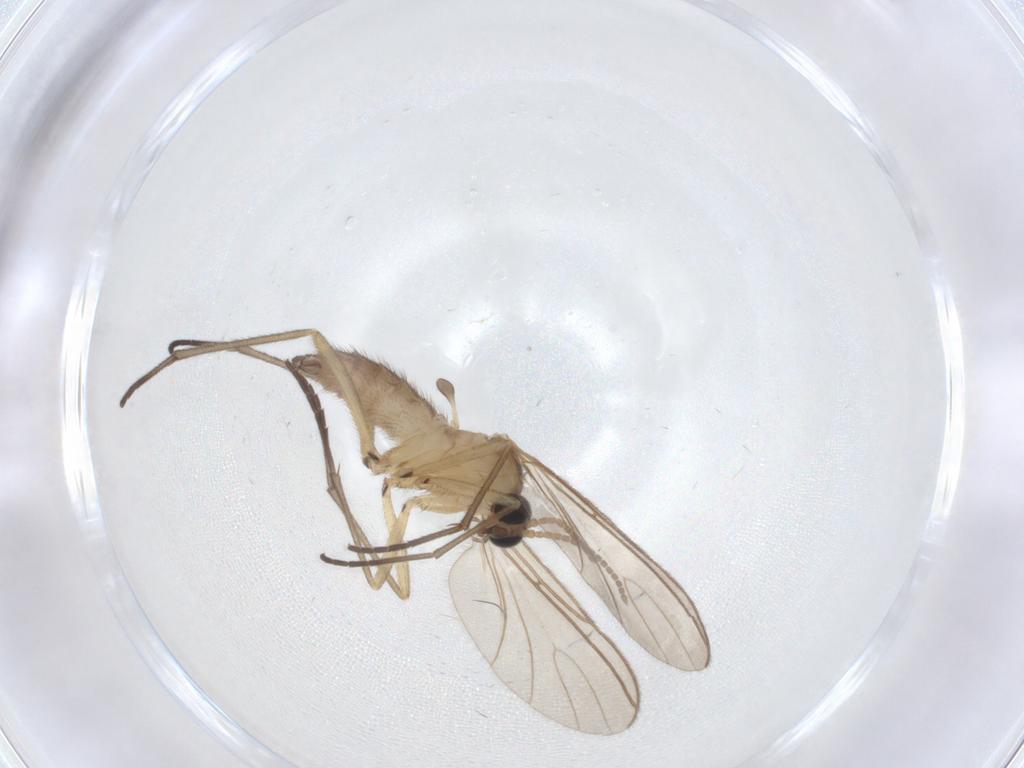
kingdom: Animalia
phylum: Arthropoda
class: Insecta
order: Diptera
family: Sciaridae
